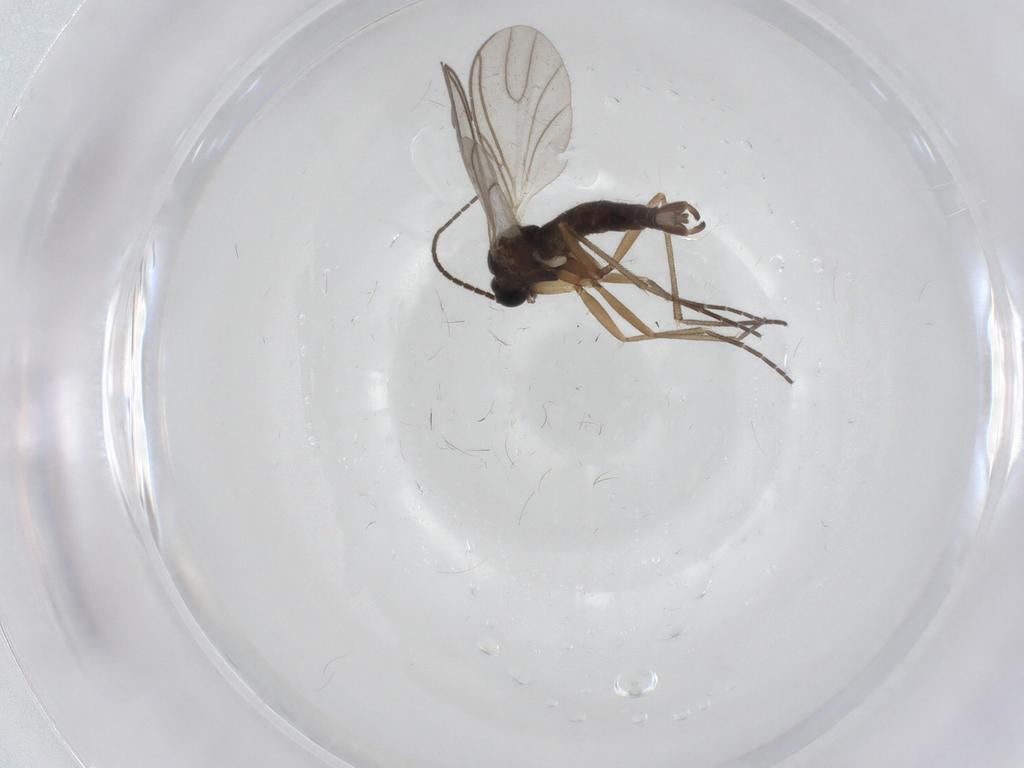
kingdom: Animalia
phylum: Arthropoda
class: Insecta
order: Diptera
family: Sciaridae
